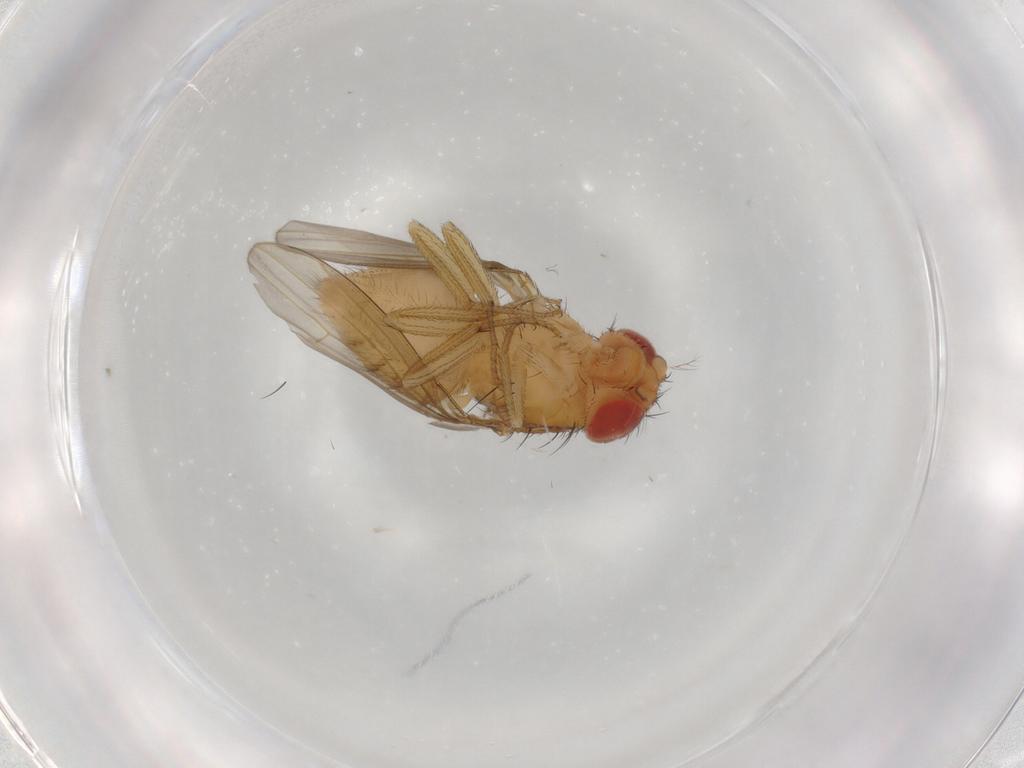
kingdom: Animalia
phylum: Arthropoda
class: Insecta
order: Diptera
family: Drosophilidae
